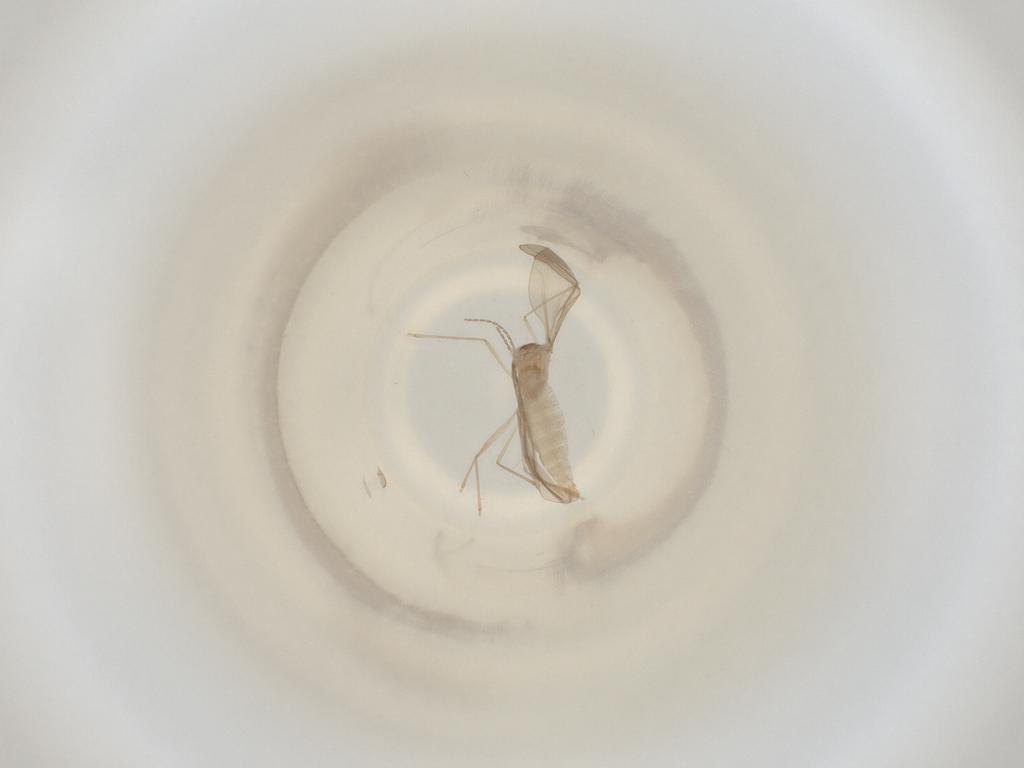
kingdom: Animalia
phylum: Arthropoda
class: Insecta
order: Diptera
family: Cecidomyiidae
